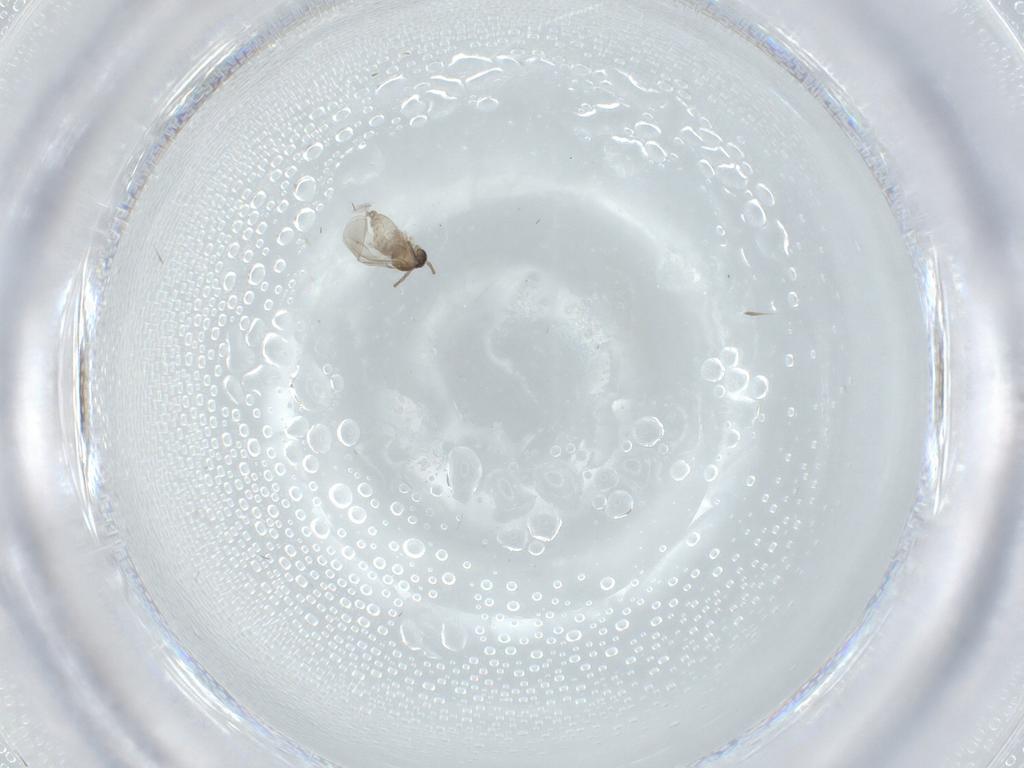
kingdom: Animalia
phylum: Arthropoda
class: Insecta
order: Diptera
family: Cecidomyiidae
